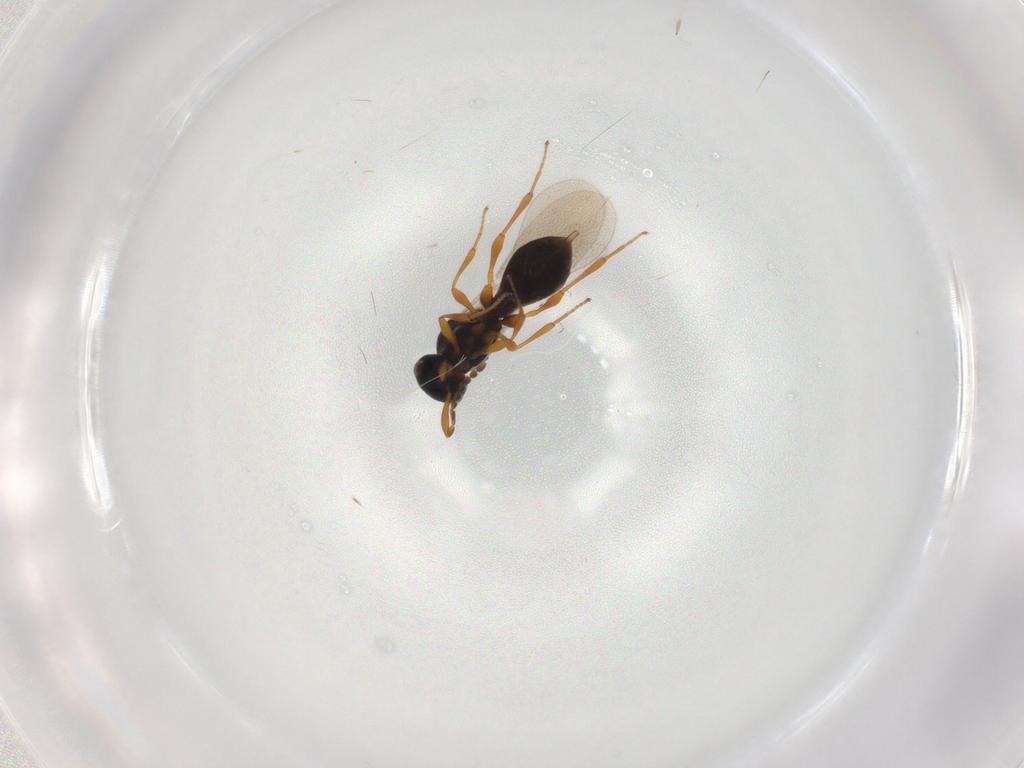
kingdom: Animalia
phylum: Arthropoda
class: Insecta
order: Diptera
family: Mythicomyiidae
